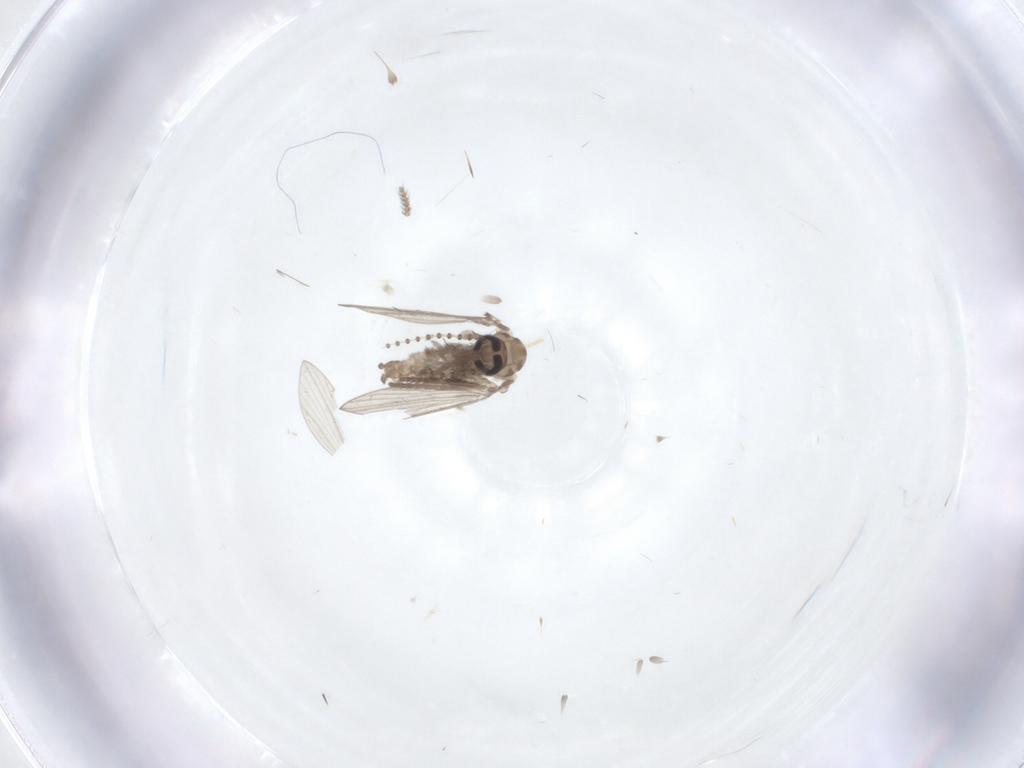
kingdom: Animalia
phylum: Arthropoda
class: Insecta
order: Diptera
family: Psychodidae
